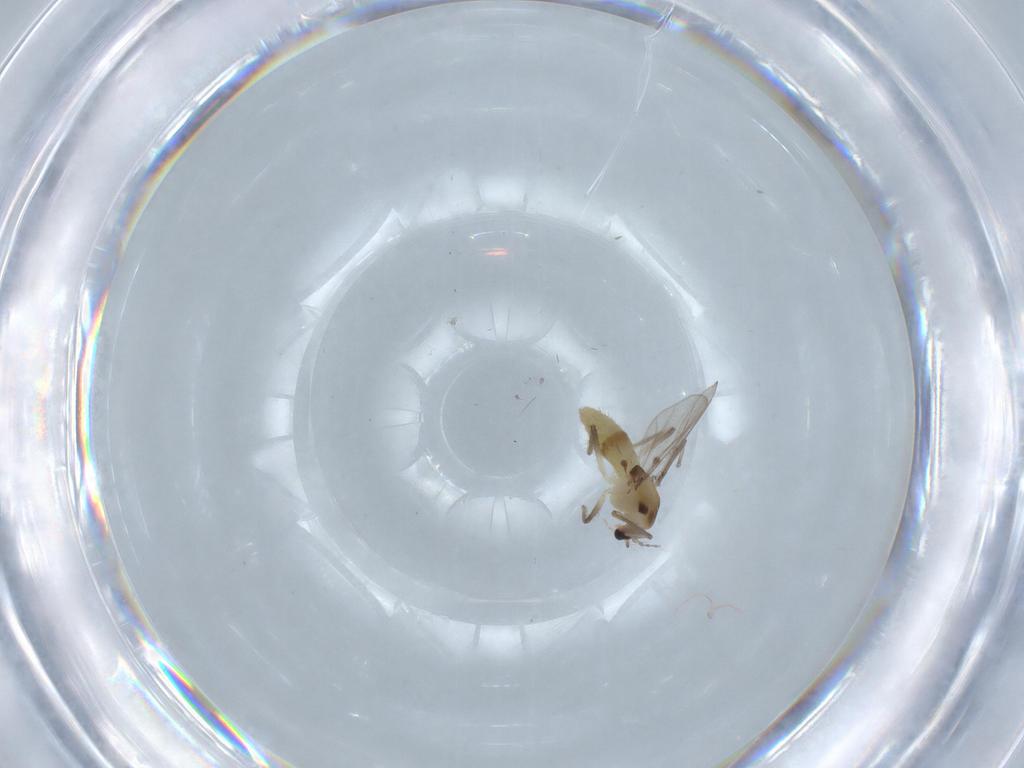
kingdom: Animalia
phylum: Arthropoda
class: Insecta
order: Diptera
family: Chironomidae
